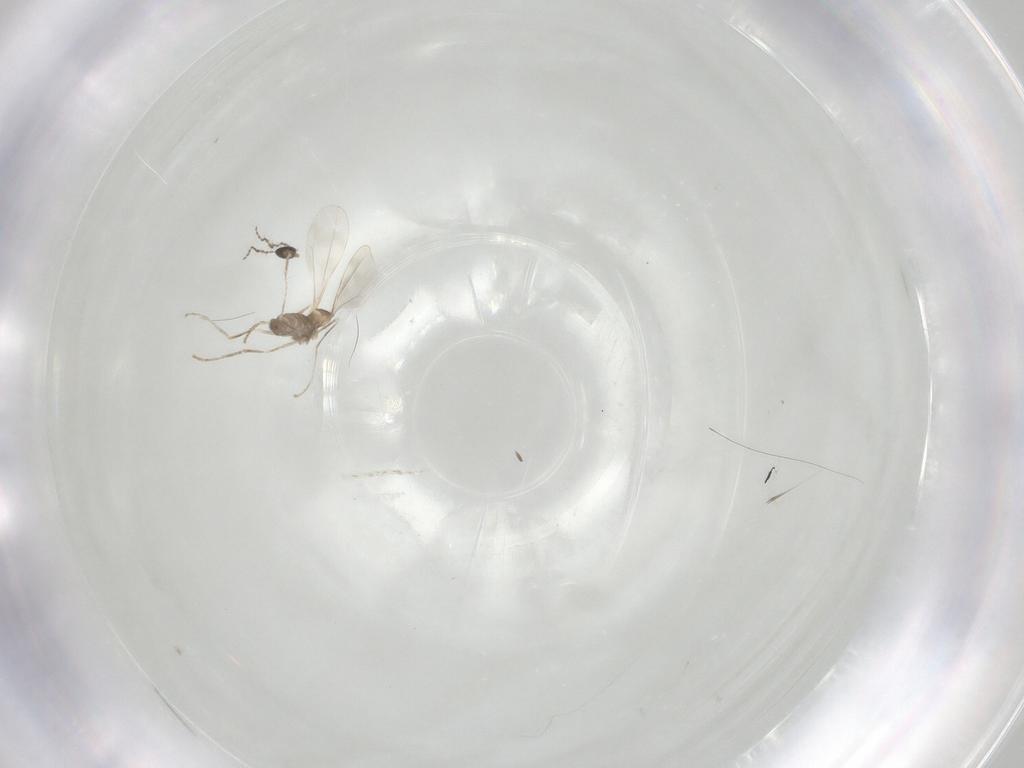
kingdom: Animalia
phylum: Arthropoda
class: Insecta
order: Diptera
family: Cecidomyiidae
